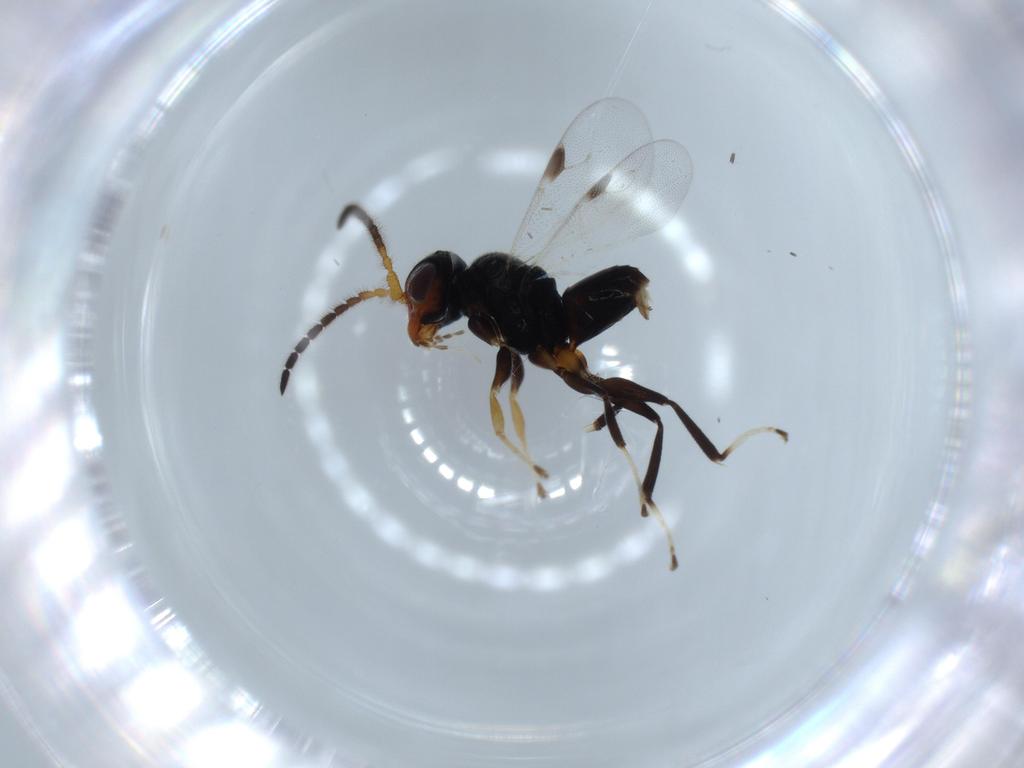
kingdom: Animalia
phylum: Arthropoda
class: Insecta
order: Hymenoptera
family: Dryinidae
